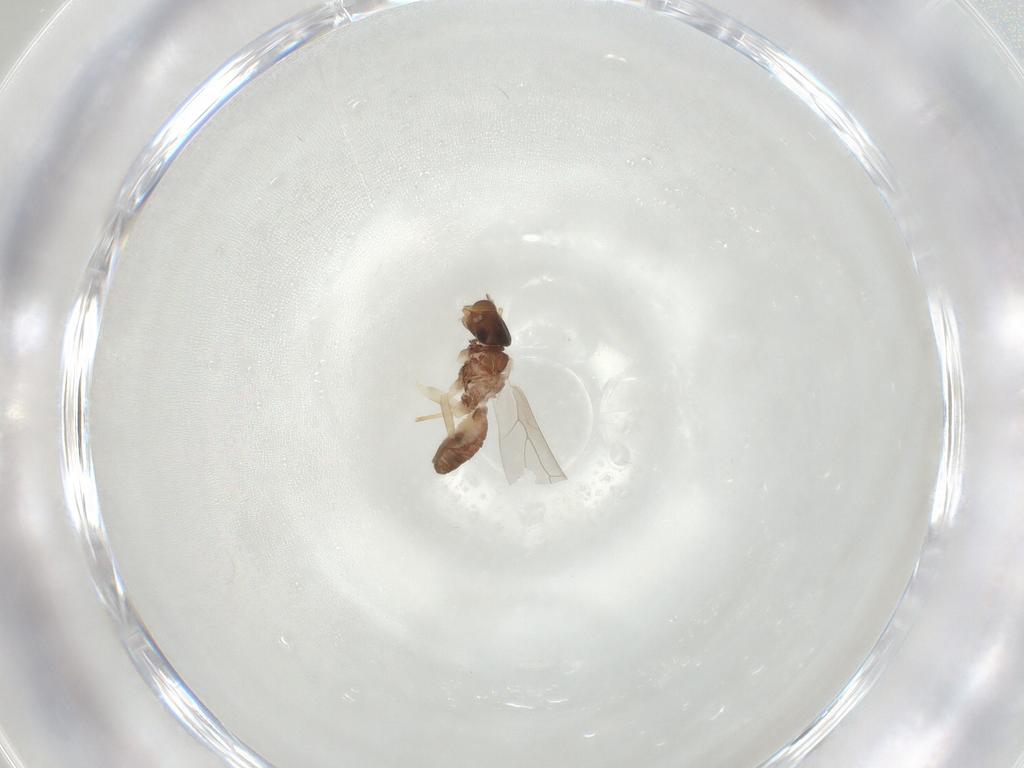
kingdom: Animalia
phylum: Arthropoda
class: Insecta
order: Psocodea
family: Lepidopsocidae
